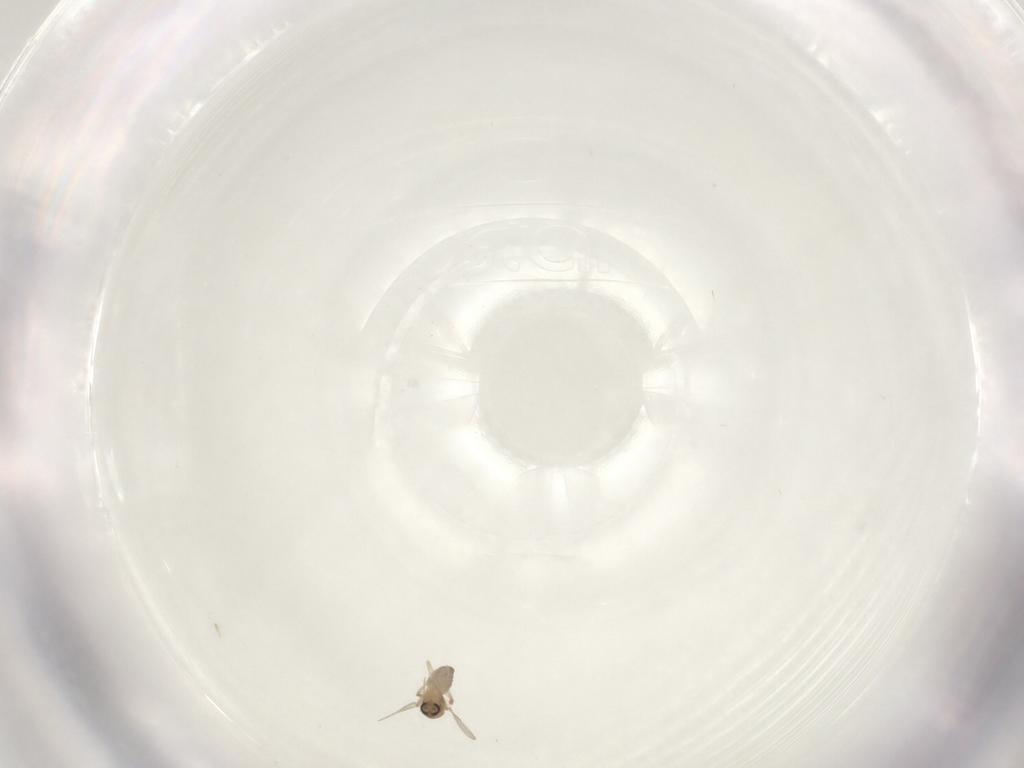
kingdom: Animalia
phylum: Arthropoda
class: Insecta
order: Diptera
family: Ceratopogonidae
